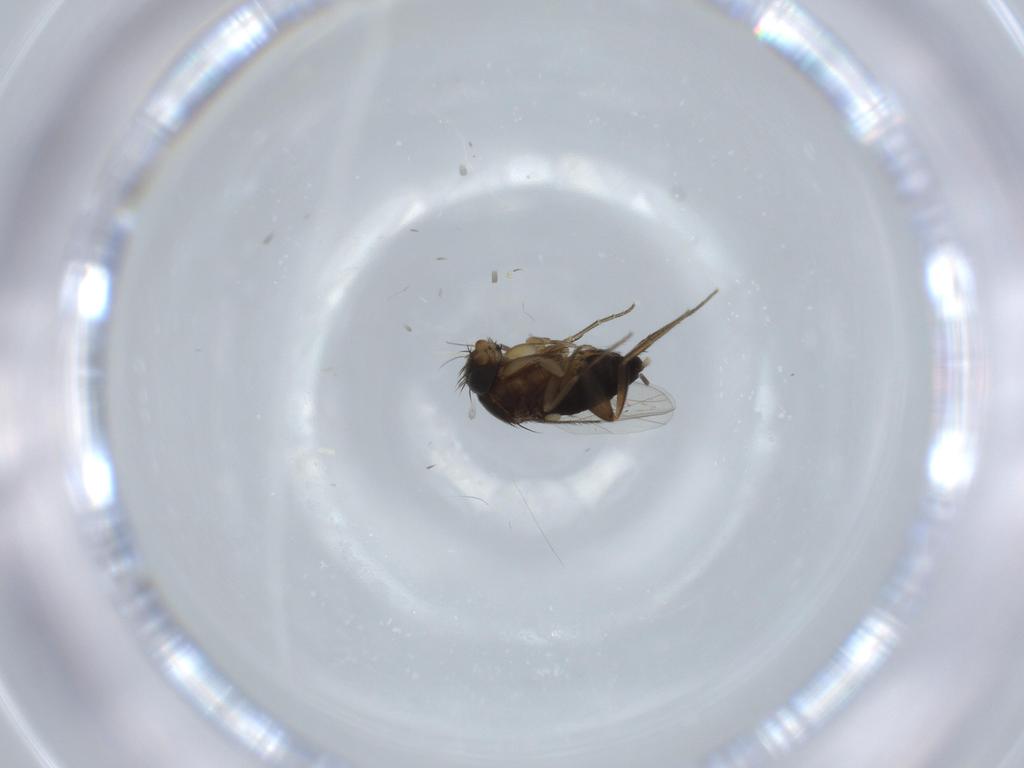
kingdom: Animalia
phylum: Arthropoda
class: Insecta
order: Diptera
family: Phoridae
